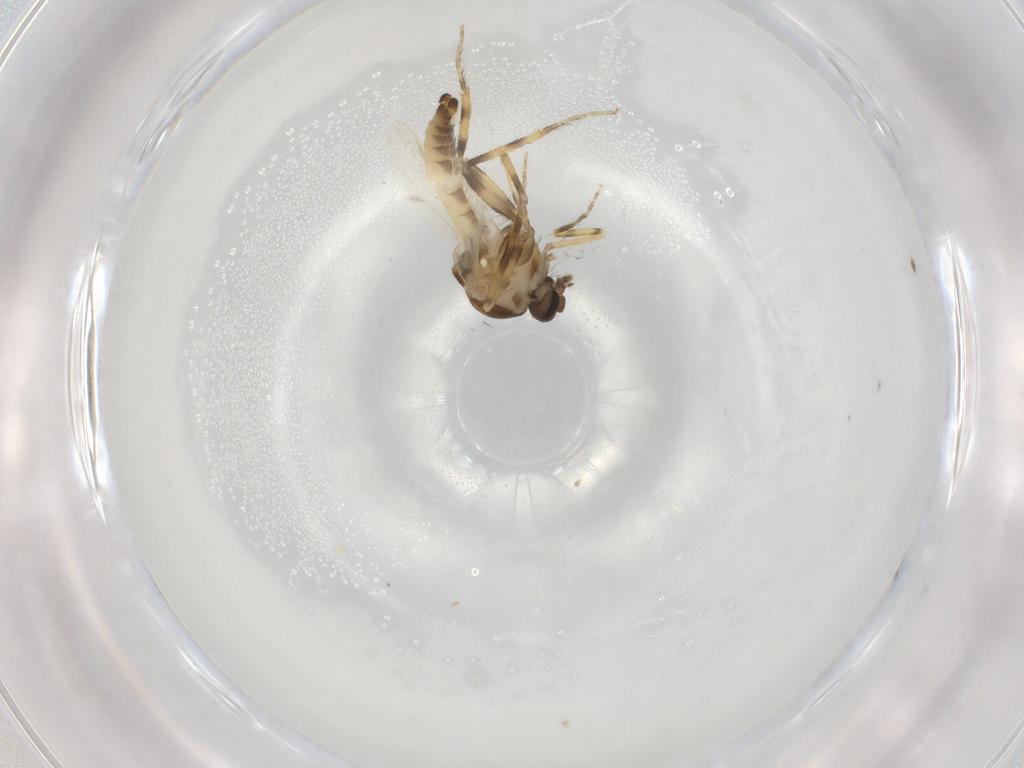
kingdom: Animalia
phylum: Arthropoda
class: Insecta
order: Diptera
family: Ceratopogonidae
